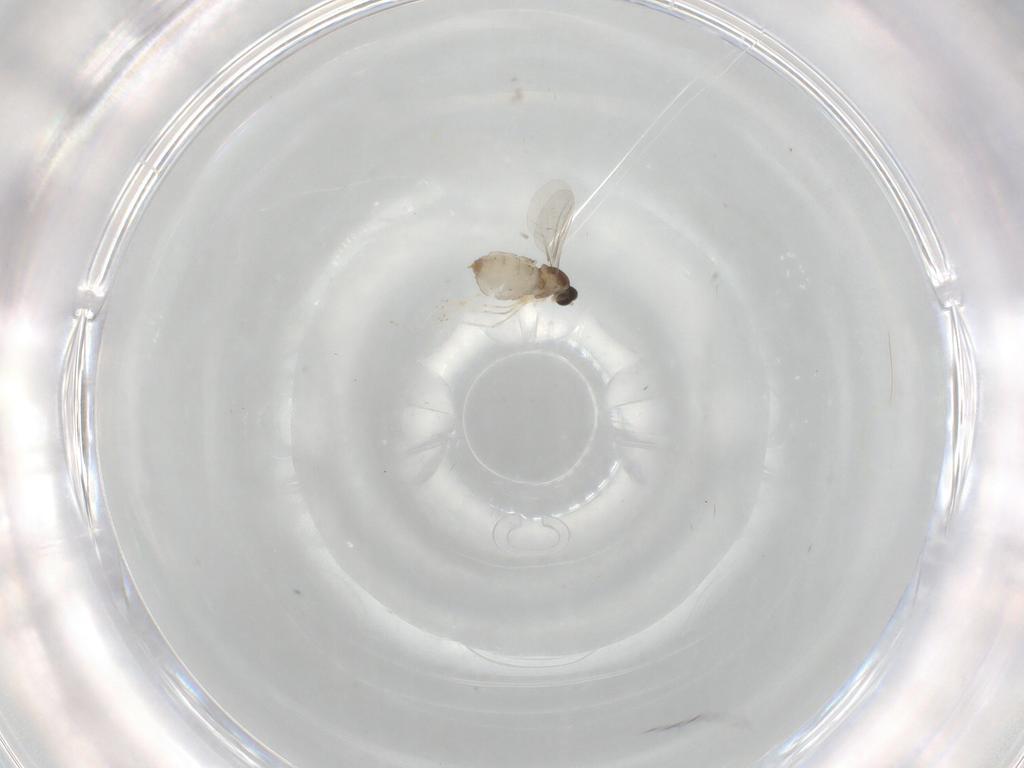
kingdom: Animalia
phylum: Arthropoda
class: Insecta
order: Diptera
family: Cecidomyiidae
